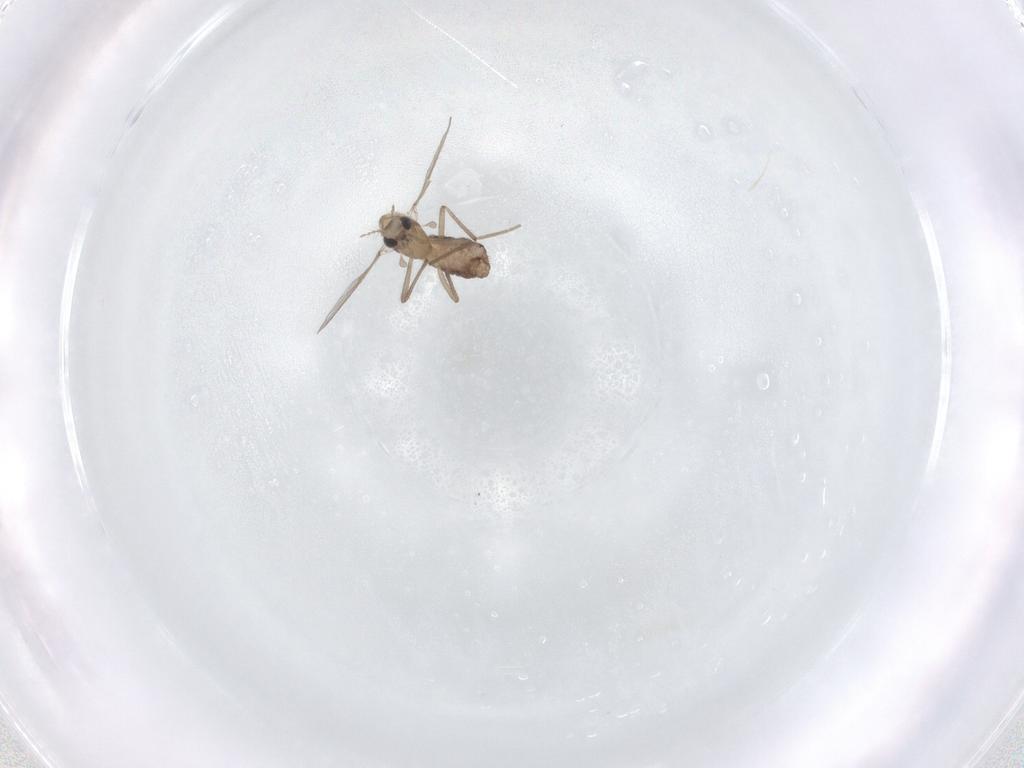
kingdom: Animalia
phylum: Arthropoda
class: Insecta
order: Diptera
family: Chironomidae
